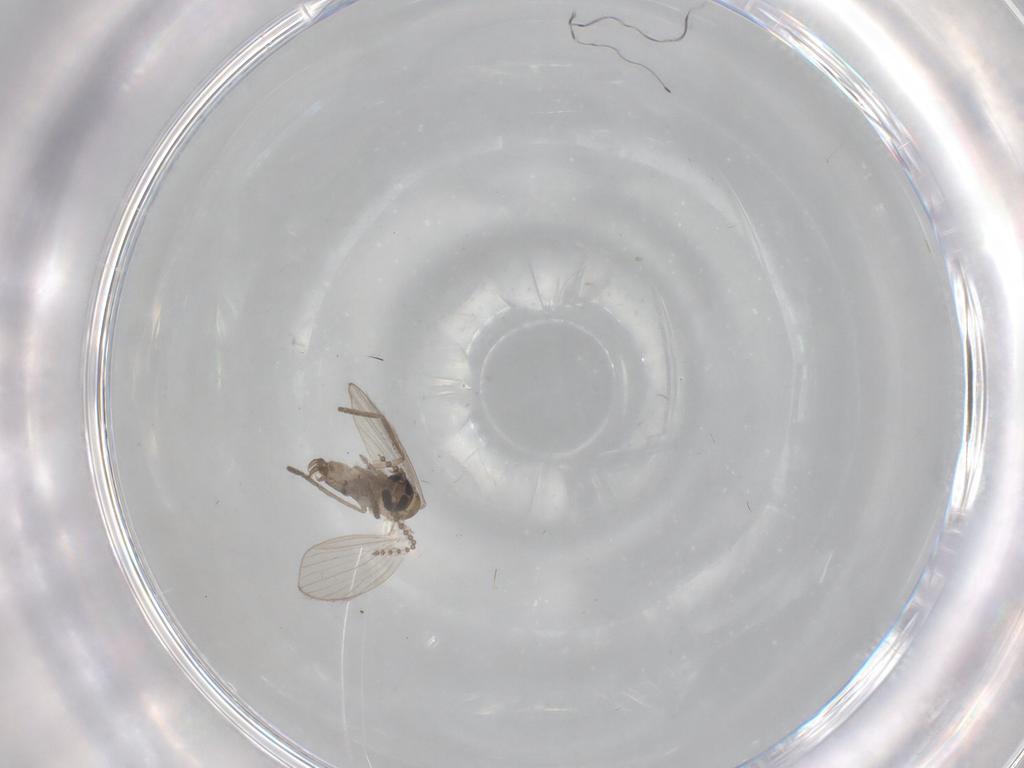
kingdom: Animalia
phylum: Arthropoda
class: Insecta
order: Diptera
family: Psychodidae
